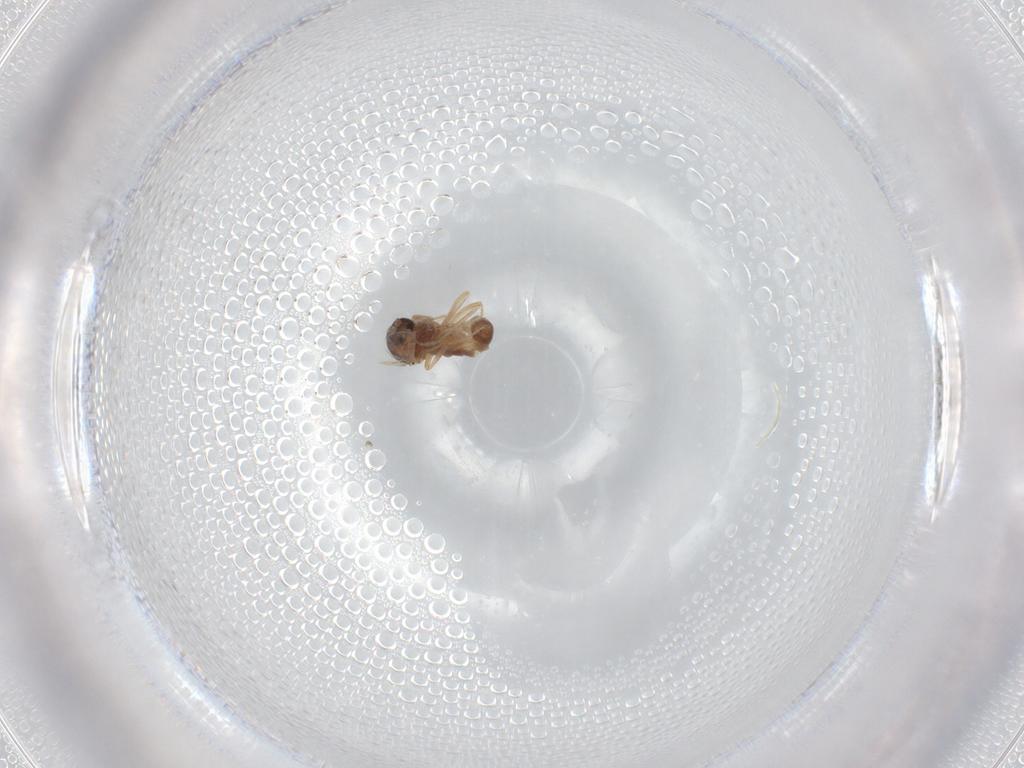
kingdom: Animalia
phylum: Arthropoda
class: Insecta
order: Diptera
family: Ceratopogonidae
